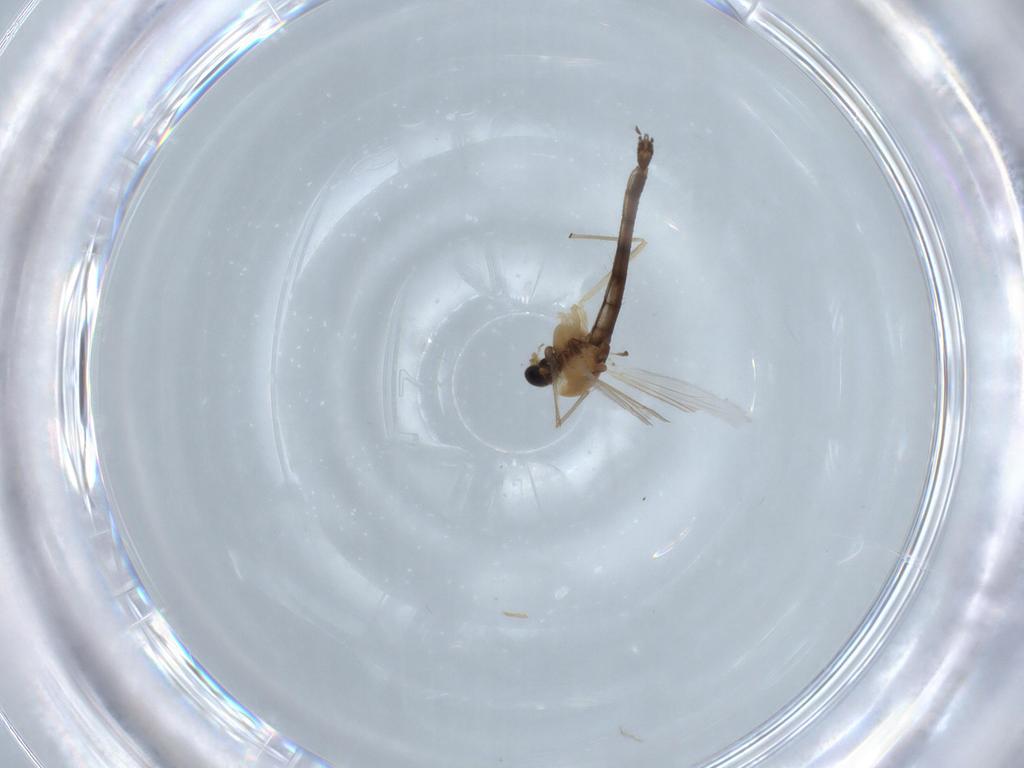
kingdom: Animalia
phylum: Arthropoda
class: Insecta
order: Diptera
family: Chironomidae
